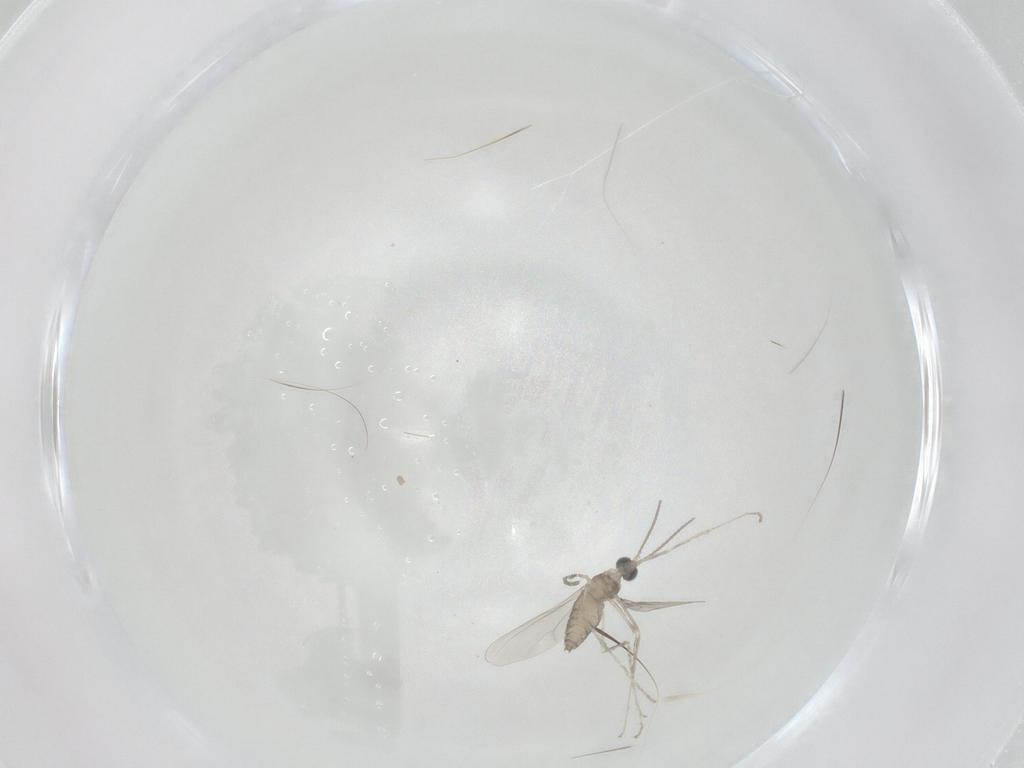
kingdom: Animalia
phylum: Arthropoda
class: Insecta
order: Diptera
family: Cecidomyiidae
